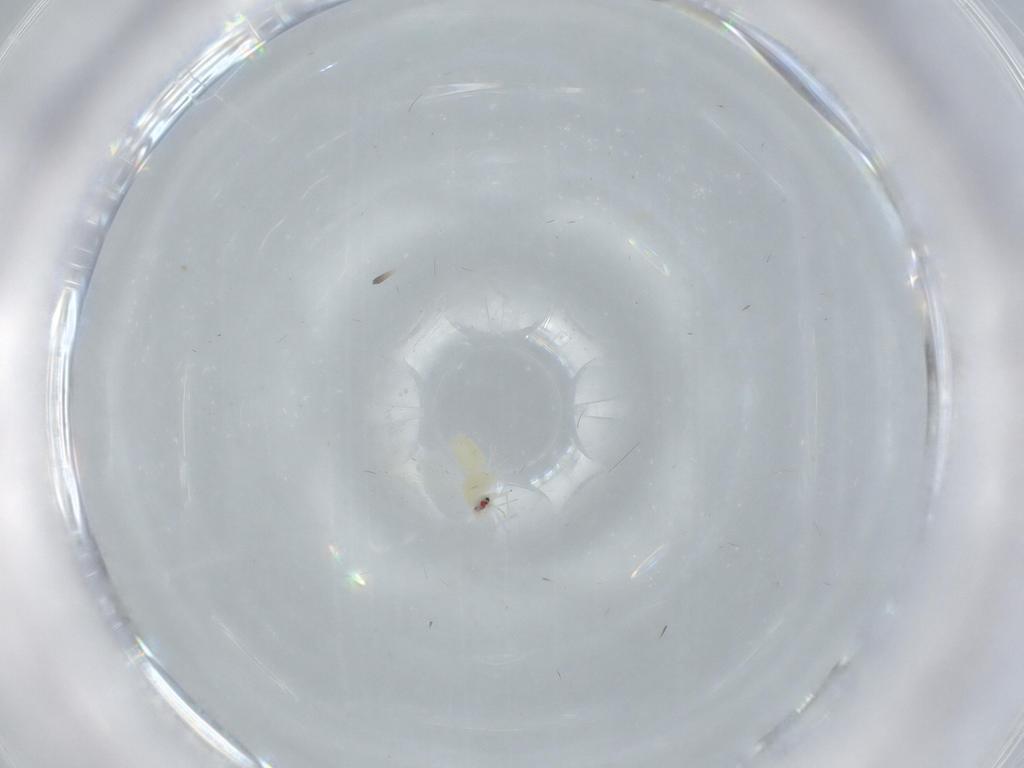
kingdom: Animalia
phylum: Arthropoda
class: Insecta
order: Hemiptera
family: Aleyrodidae
